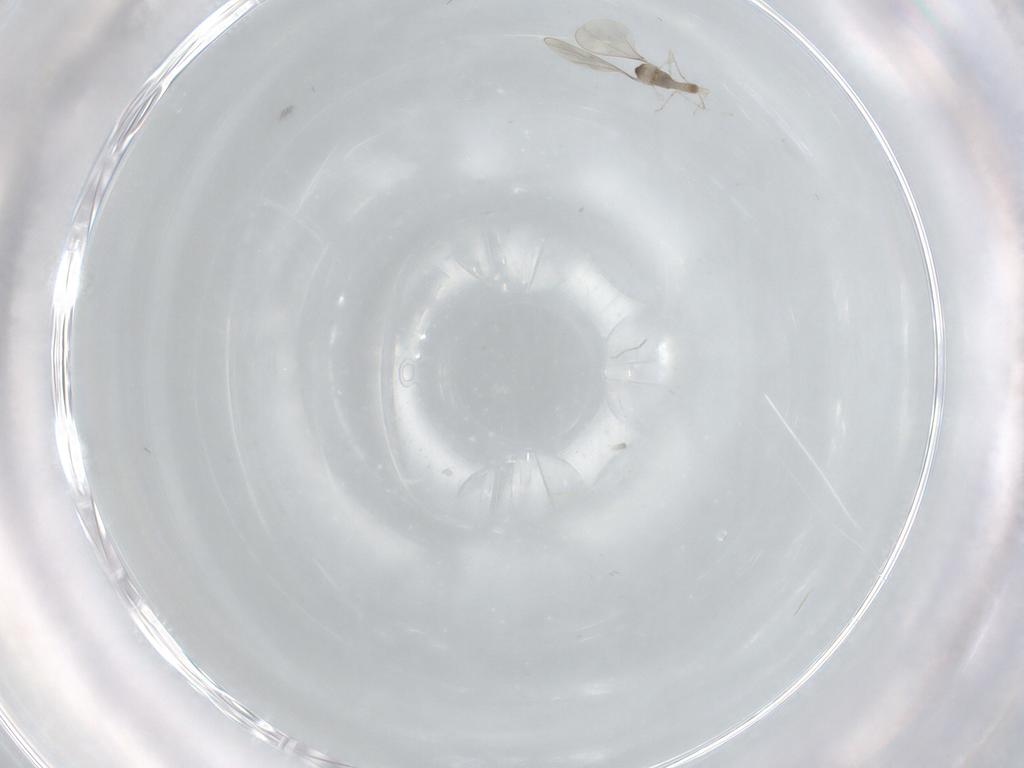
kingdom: Animalia
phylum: Arthropoda
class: Insecta
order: Diptera
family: Cecidomyiidae
